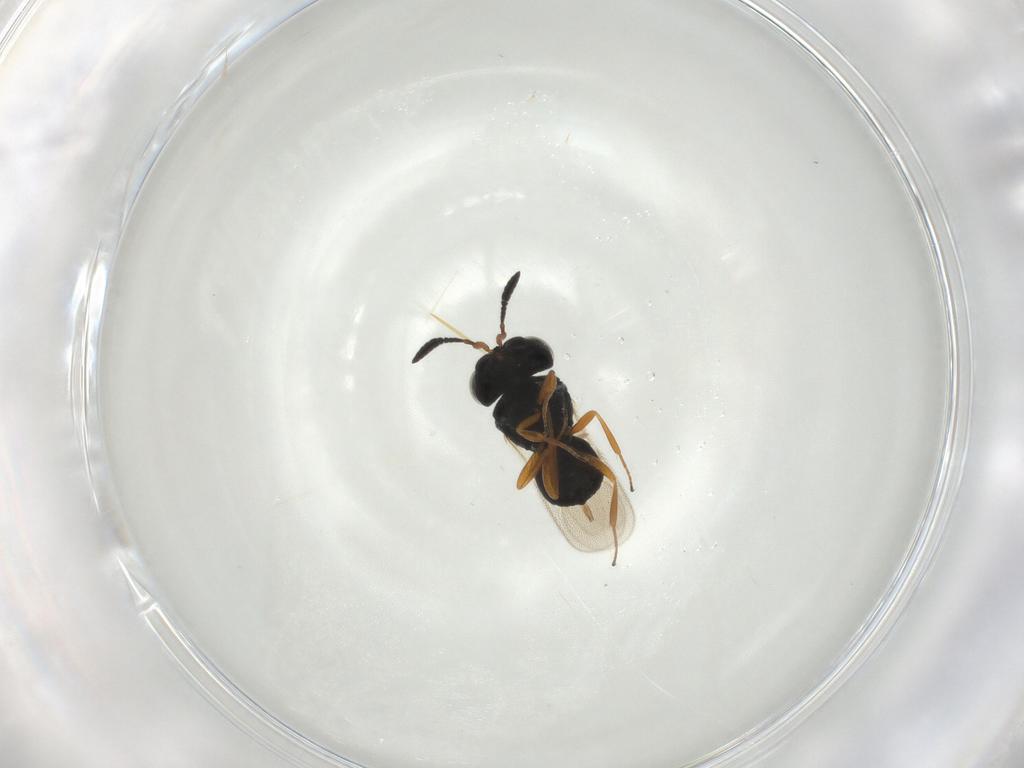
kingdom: Animalia
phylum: Arthropoda
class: Insecta
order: Hymenoptera
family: Scelionidae
